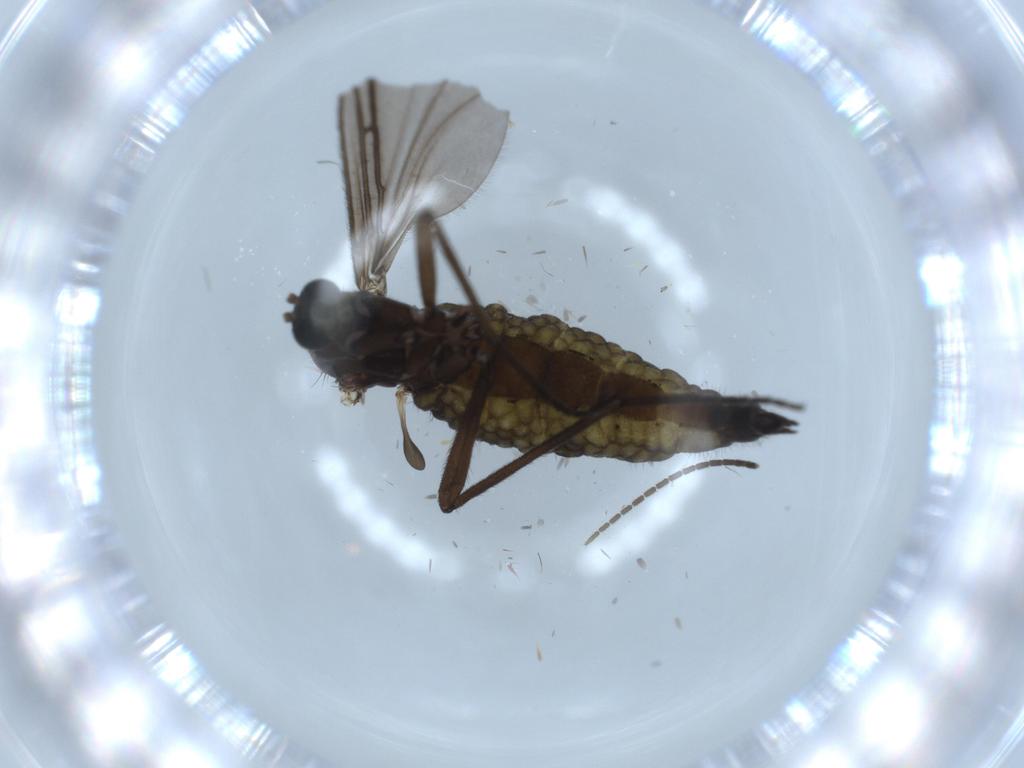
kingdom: Animalia
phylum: Arthropoda
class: Insecta
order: Diptera
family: Sciaridae
